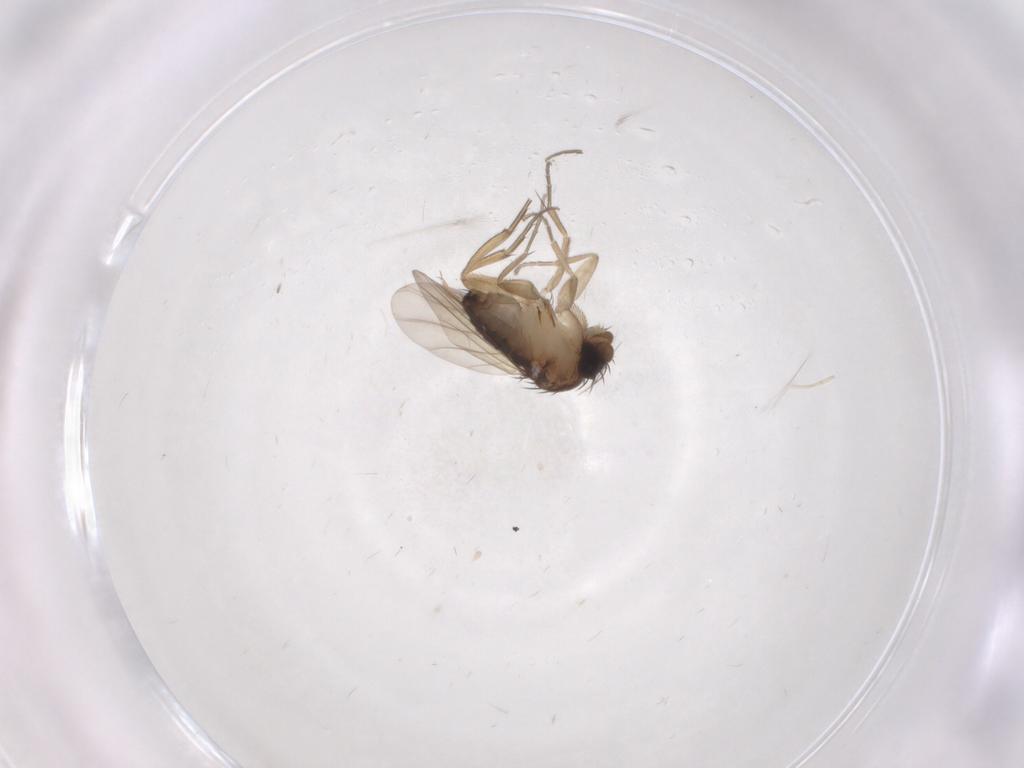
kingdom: Animalia
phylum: Arthropoda
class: Insecta
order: Diptera
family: Phoridae
